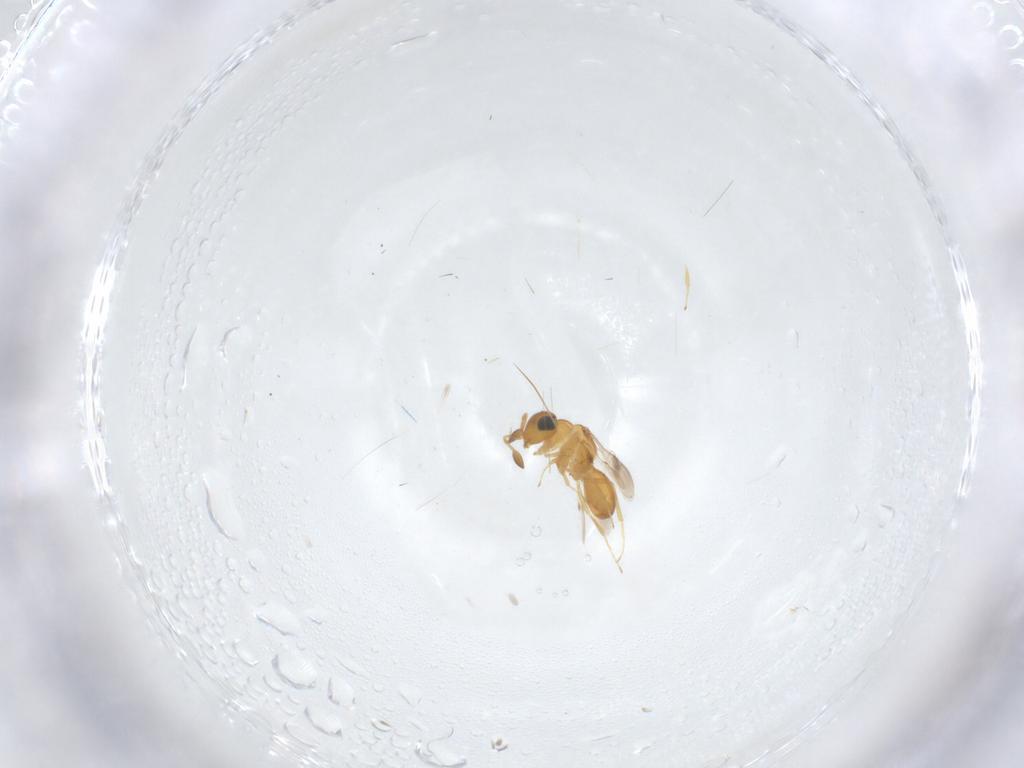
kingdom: Animalia
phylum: Arthropoda
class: Insecta
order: Hymenoptera
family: Scelionidae
